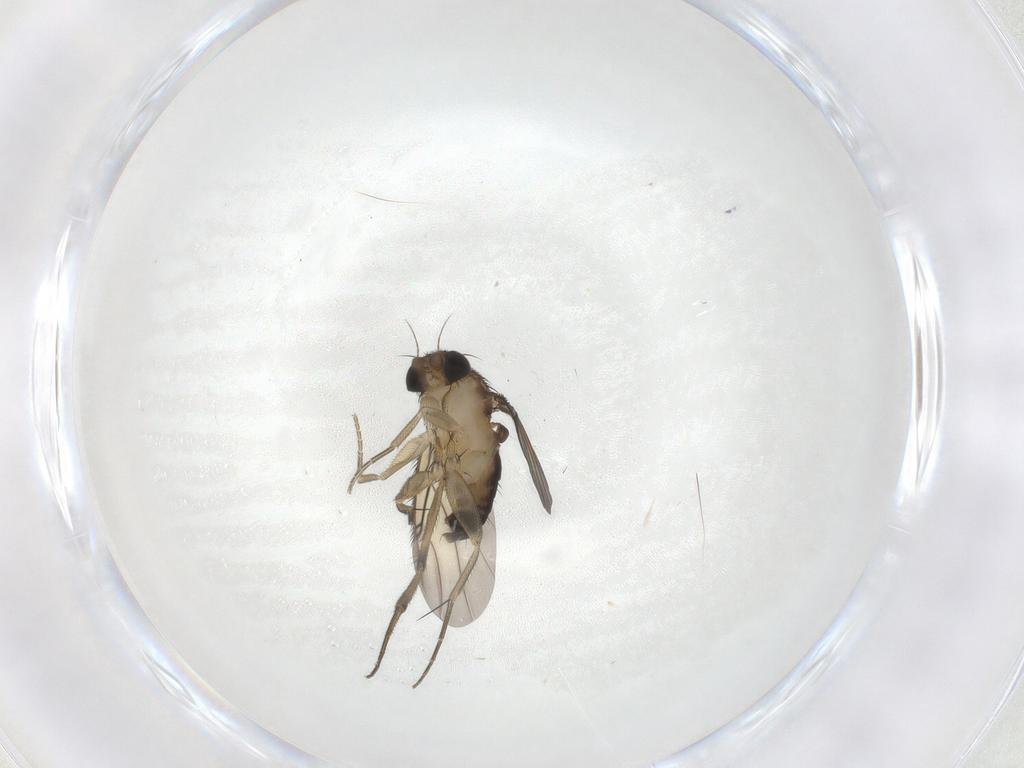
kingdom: Animalia
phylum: Arthropoda
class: Insecta
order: Diptera
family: Phoridae
